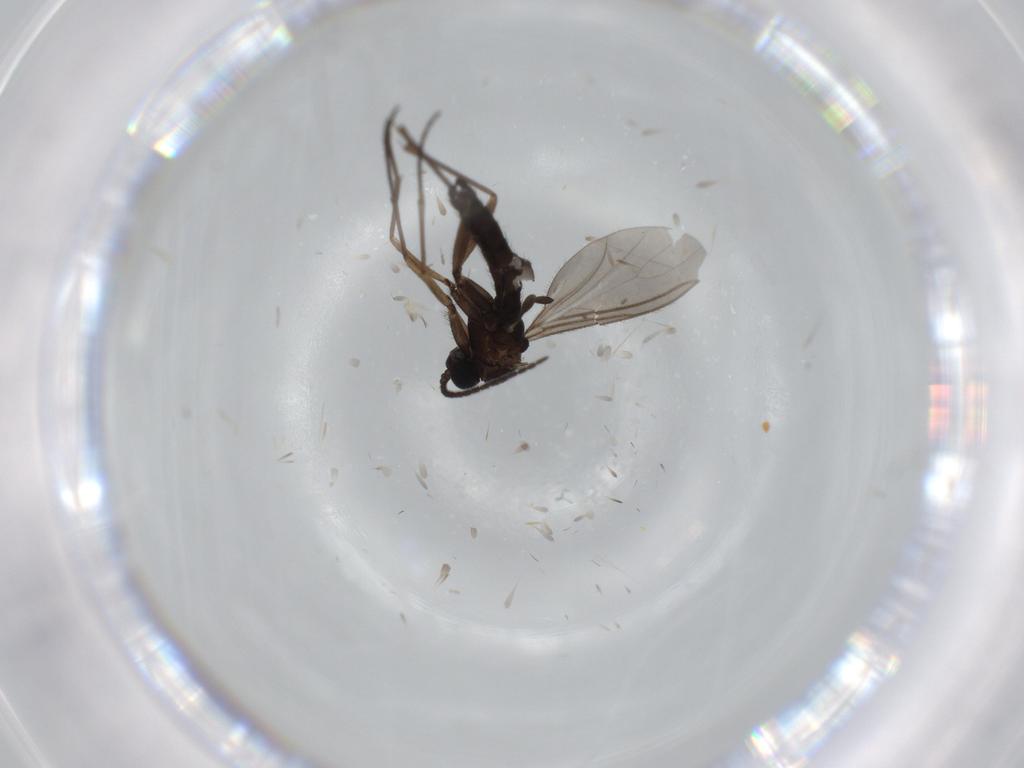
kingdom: Animalia
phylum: Arthropoda
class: Insecta
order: Diptera
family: Sciaridae
